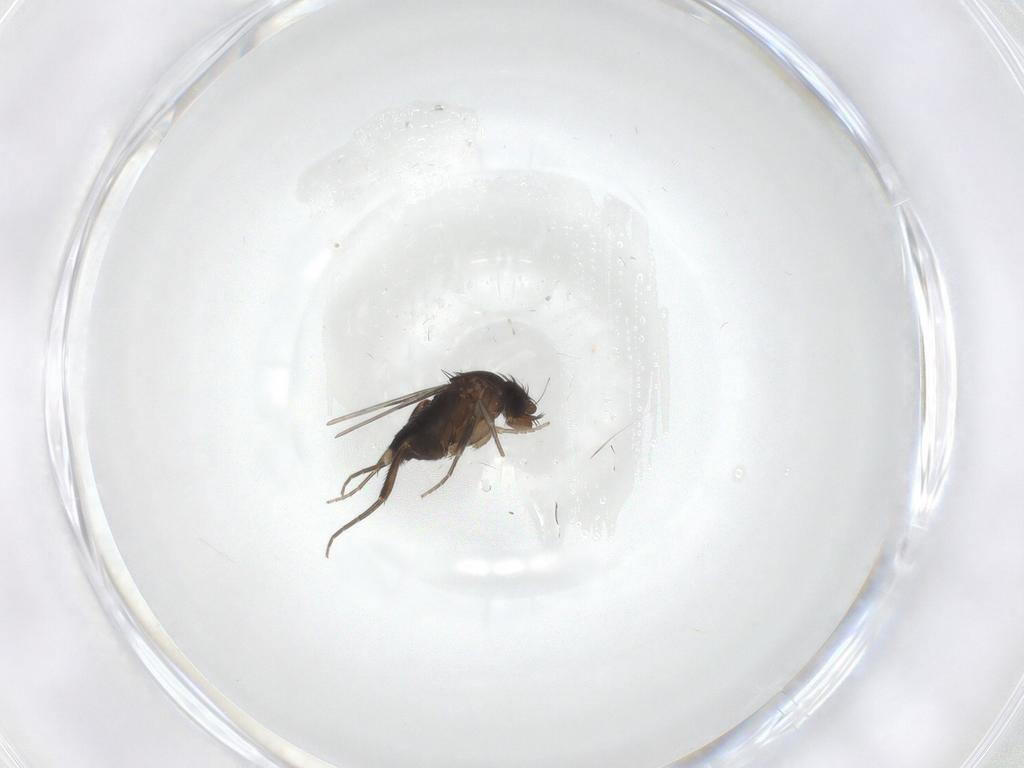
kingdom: Animalia
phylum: Arthropoda
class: Insecta
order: Diptera
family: Phoridae
